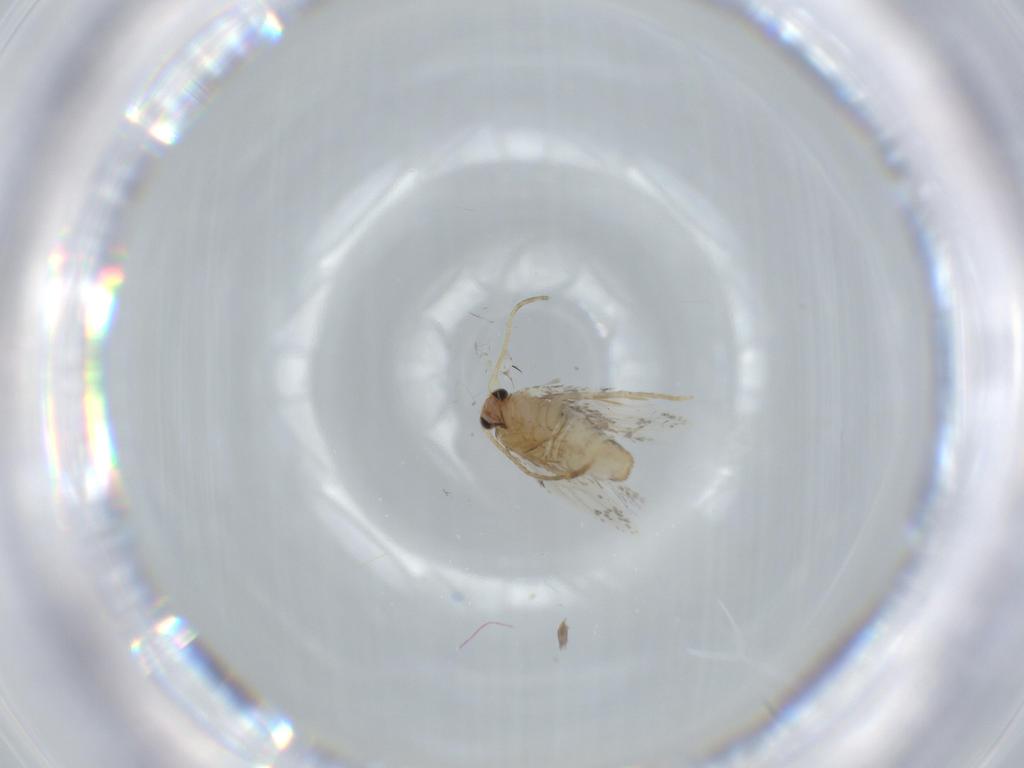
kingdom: Animalia
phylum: Arthropoda
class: Insecta
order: Lepidoptera
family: Nepticulidae
